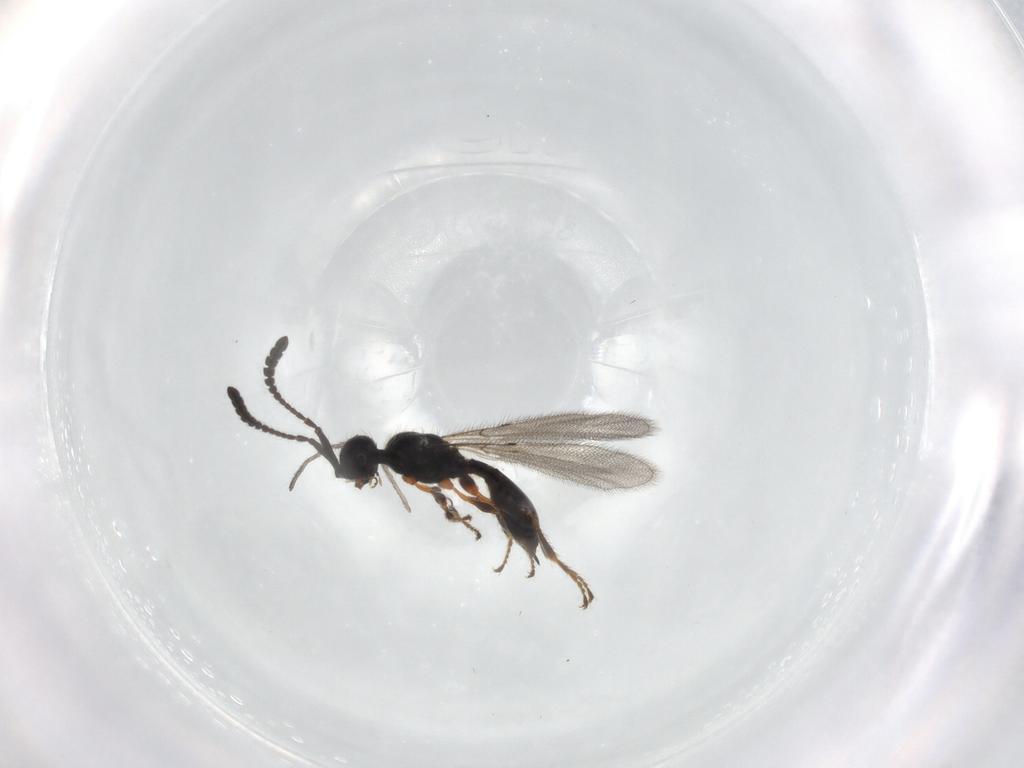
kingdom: Animalia
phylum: Arthropoda
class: Insecta
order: Hymenoptera
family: Diapriidae
